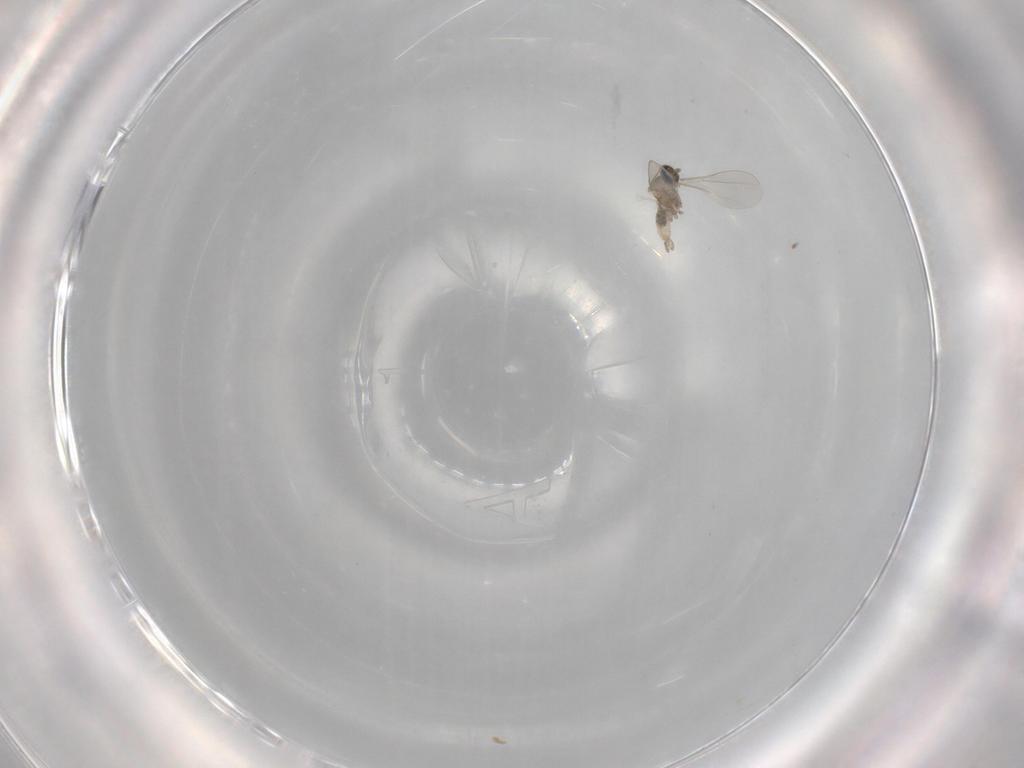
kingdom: Animalia
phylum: Arthropoda
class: Insecta
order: Diptera
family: Cecidomyiidae
